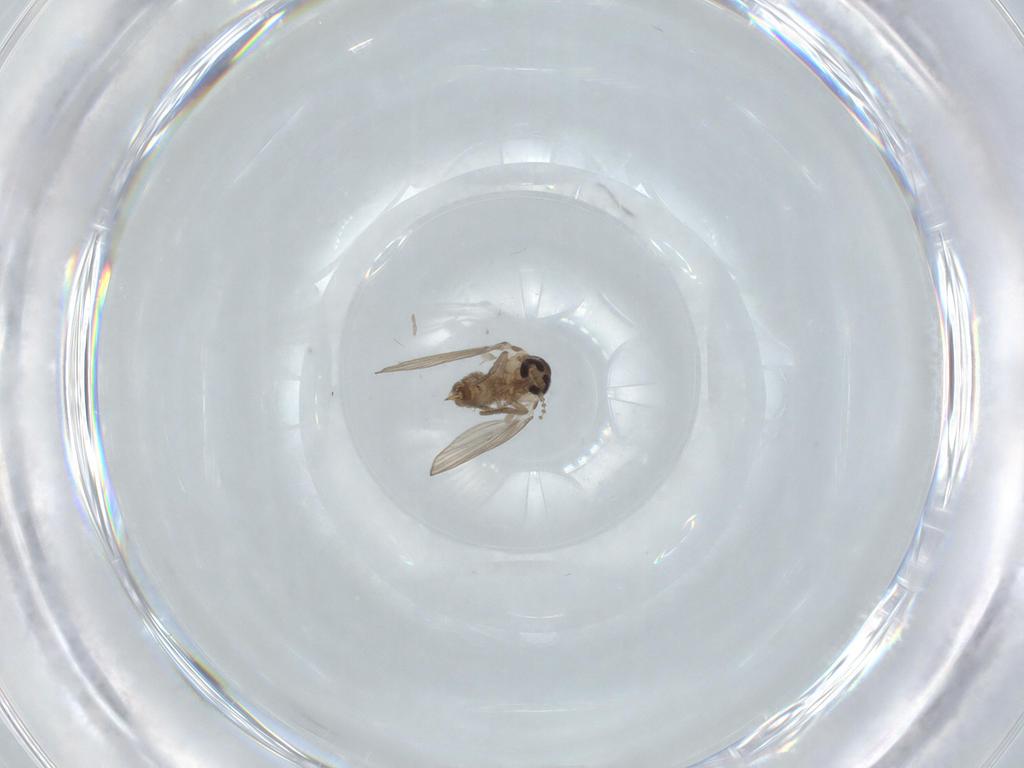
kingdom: Animalia
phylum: Arthropoda
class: Insecta
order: Diptera
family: Psychodidae
